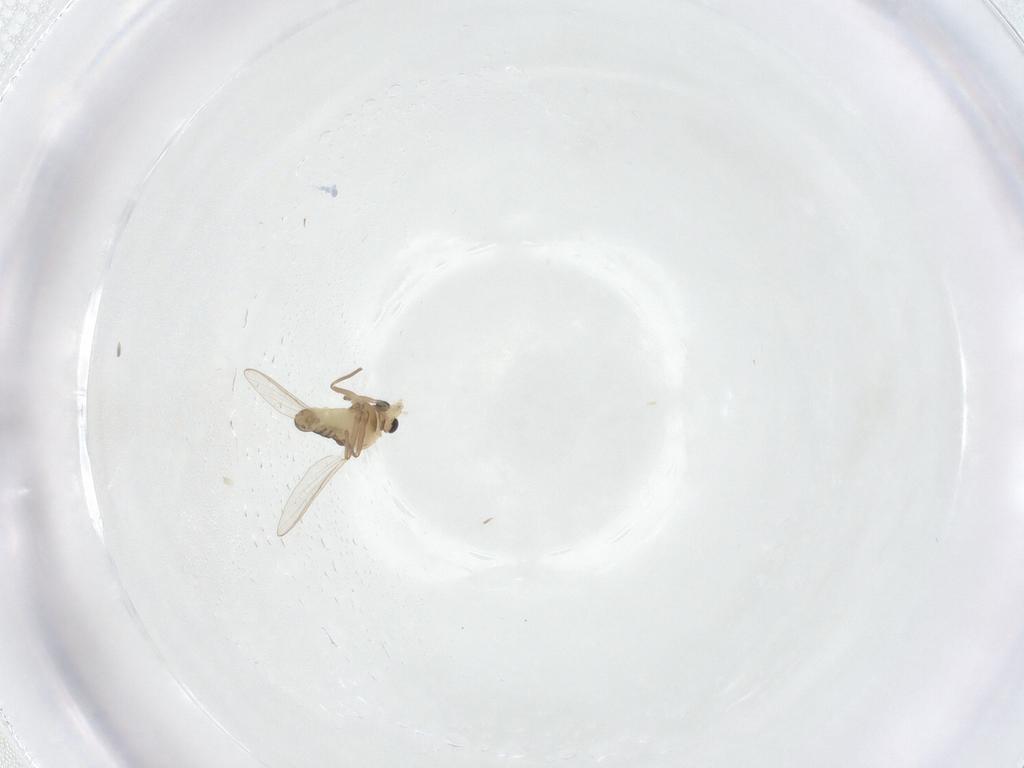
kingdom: Animalia
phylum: Arthropoda
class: Insecta
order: Diptera
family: Chironomidae
